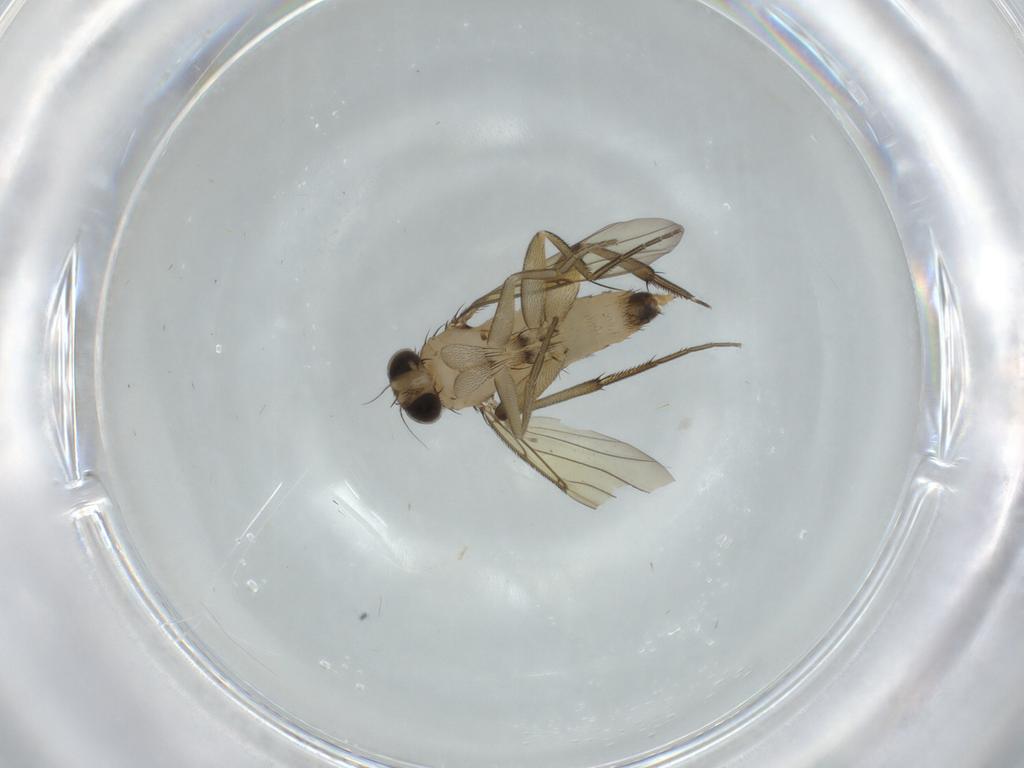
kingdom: Animalia
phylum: Arthropoda
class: Insecta
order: Diptera
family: Phoridae
